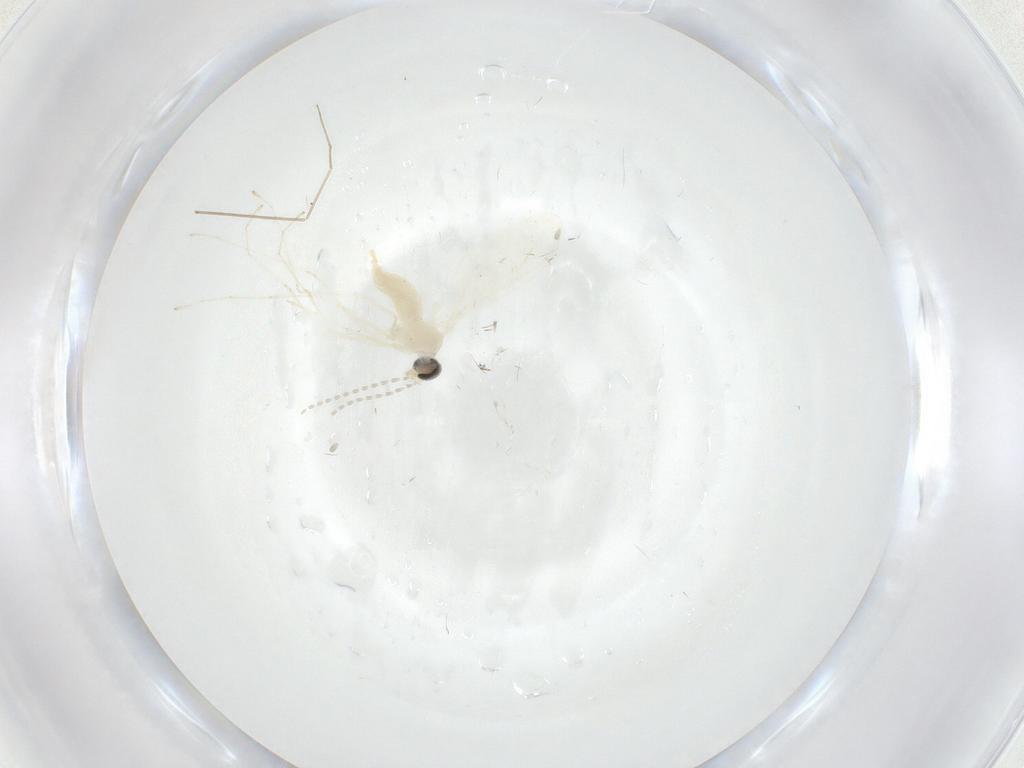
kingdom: Animalia
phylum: Arthropoda
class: Insecta
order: Diptera
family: Cecidomyiidae
